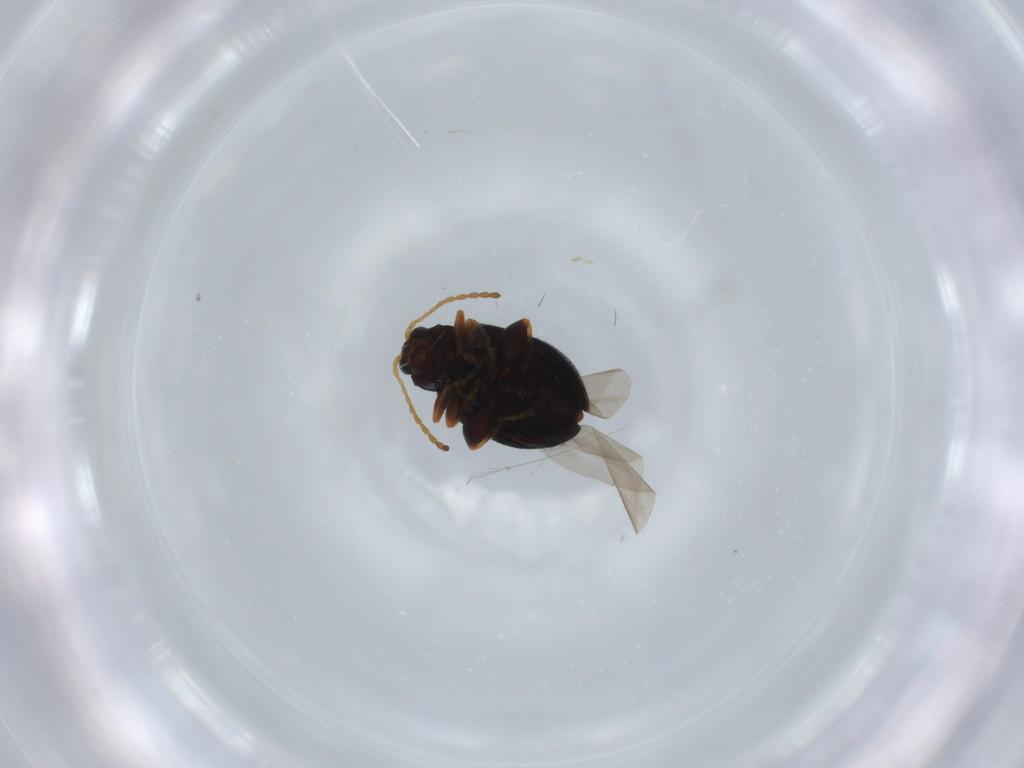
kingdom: Animalia
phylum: Arthropoda
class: Insecta
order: Coleoptera
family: Chrysomelidae
